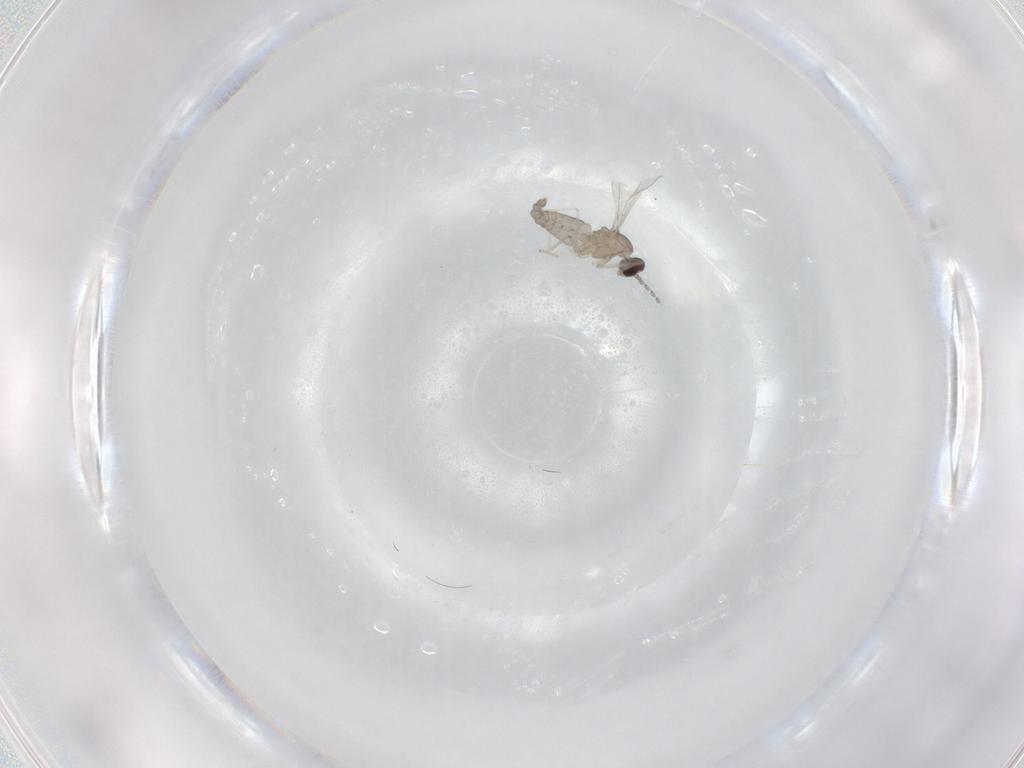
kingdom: Animalia
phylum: Arthropoda
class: Insecta
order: Diptera
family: Cecidomyiidae
